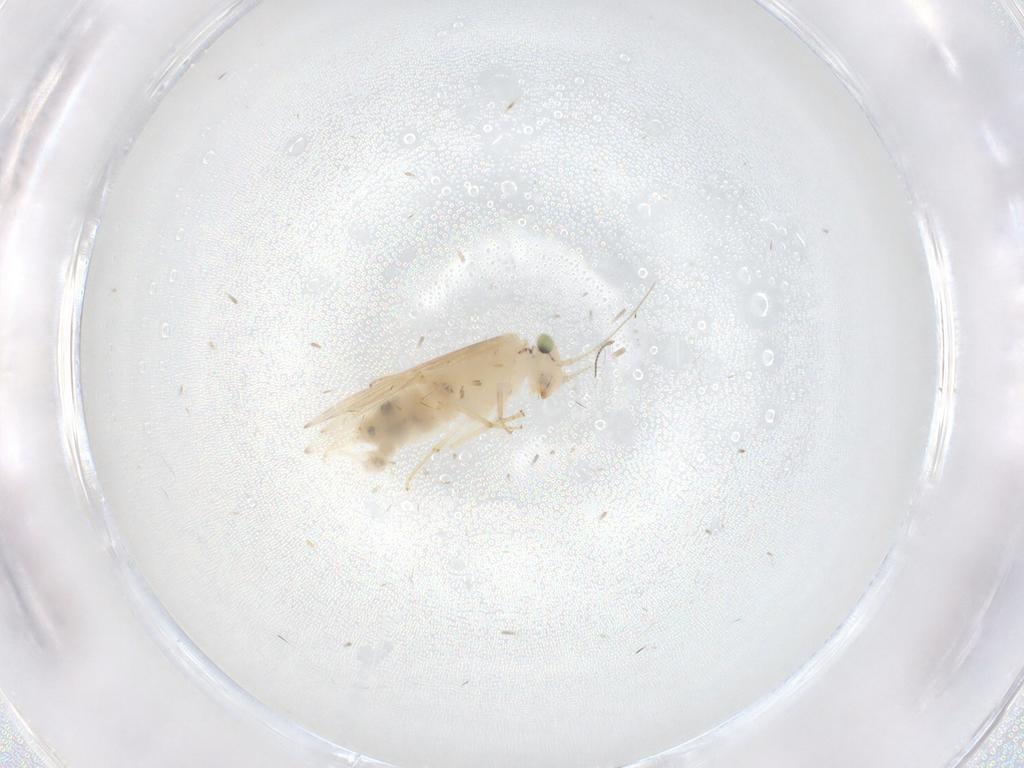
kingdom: Animalia
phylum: Arthropoda
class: Insecta
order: Psocodea
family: Lepidopsocidae
